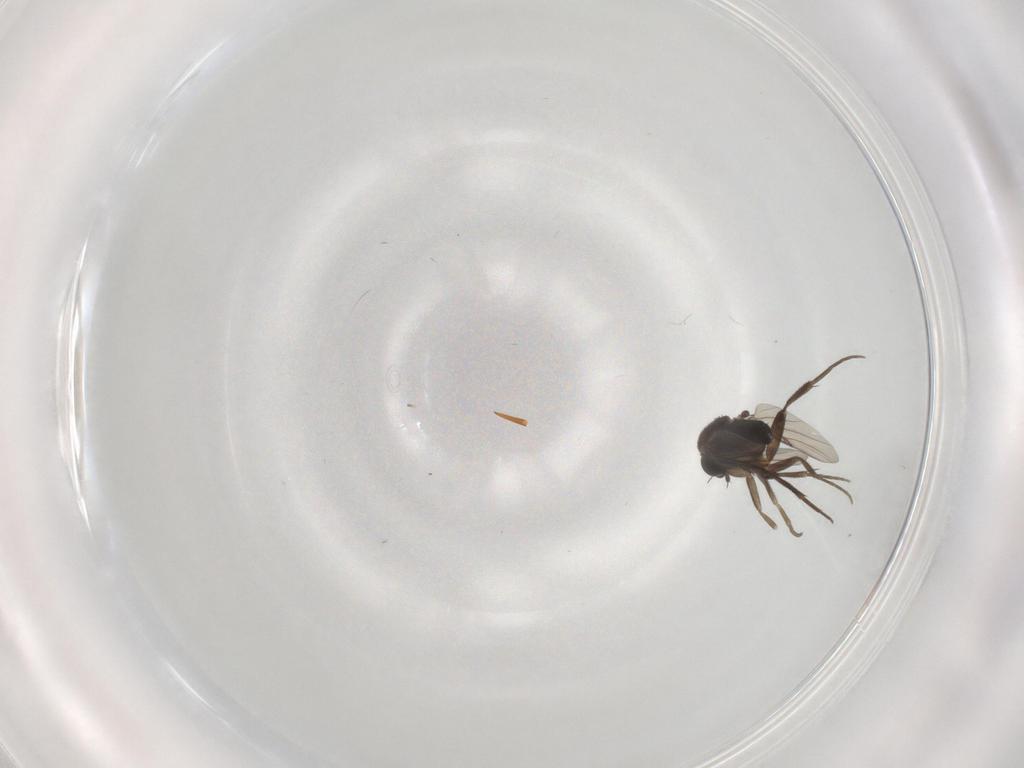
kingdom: Animalia
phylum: Arthropoda
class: Insecta
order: Diptera
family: Phoridae
